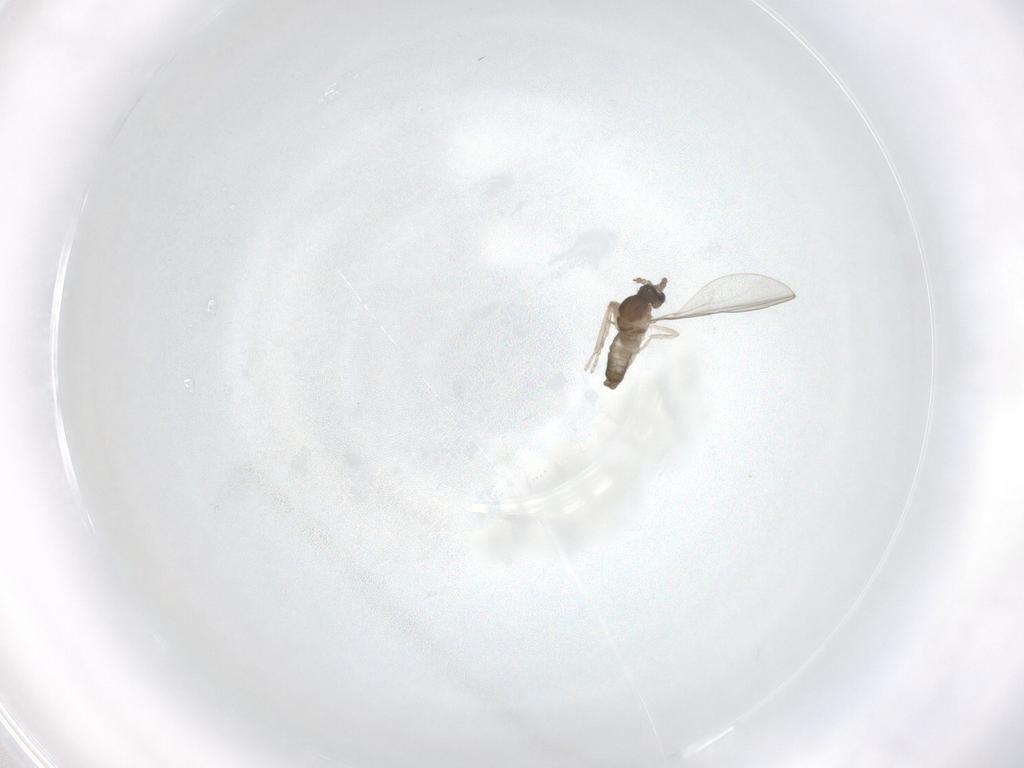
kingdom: Animalia
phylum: Arthropoda
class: Insecta
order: Diptera
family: Cecidomyiidae
